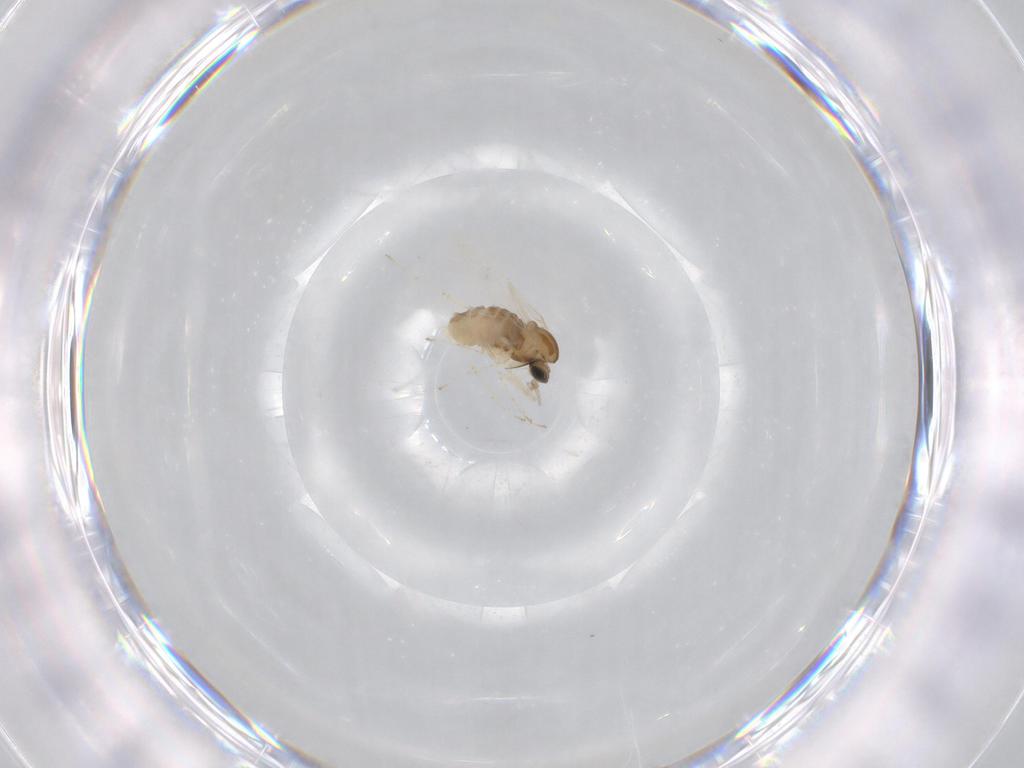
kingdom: Animalia
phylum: Arthropoda
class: Insecta
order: Diptera
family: Cecidomyiidae
